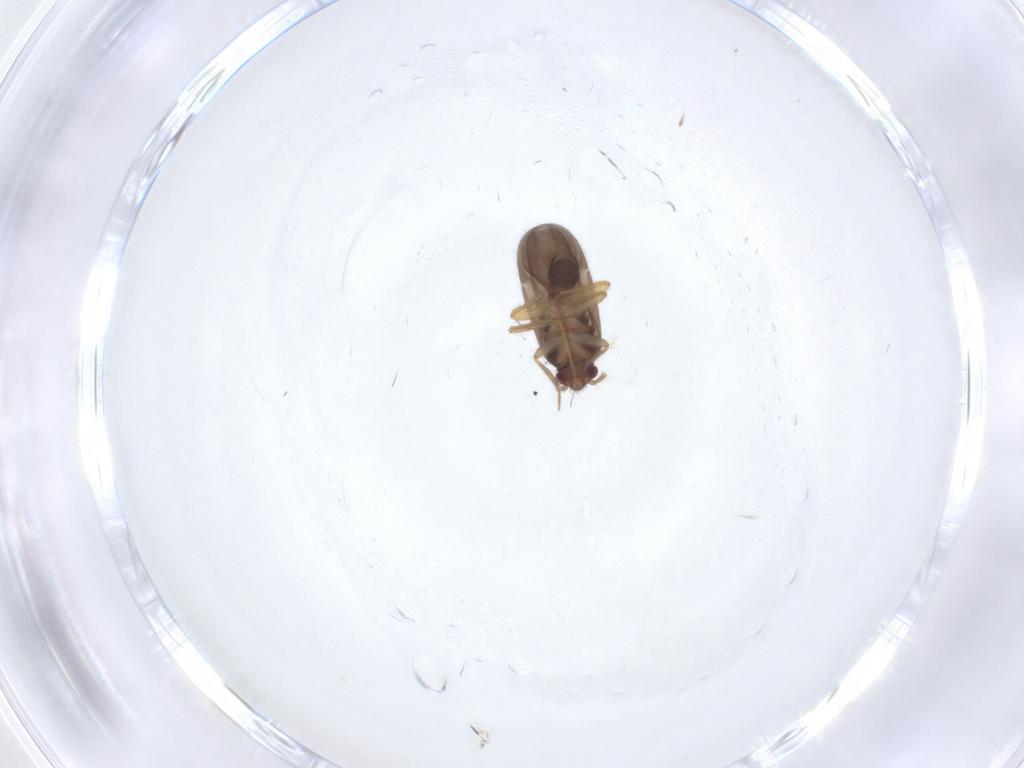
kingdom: Animalia
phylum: Arthropoda
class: Insecta
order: Hemiptera
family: Ceratocombidae
